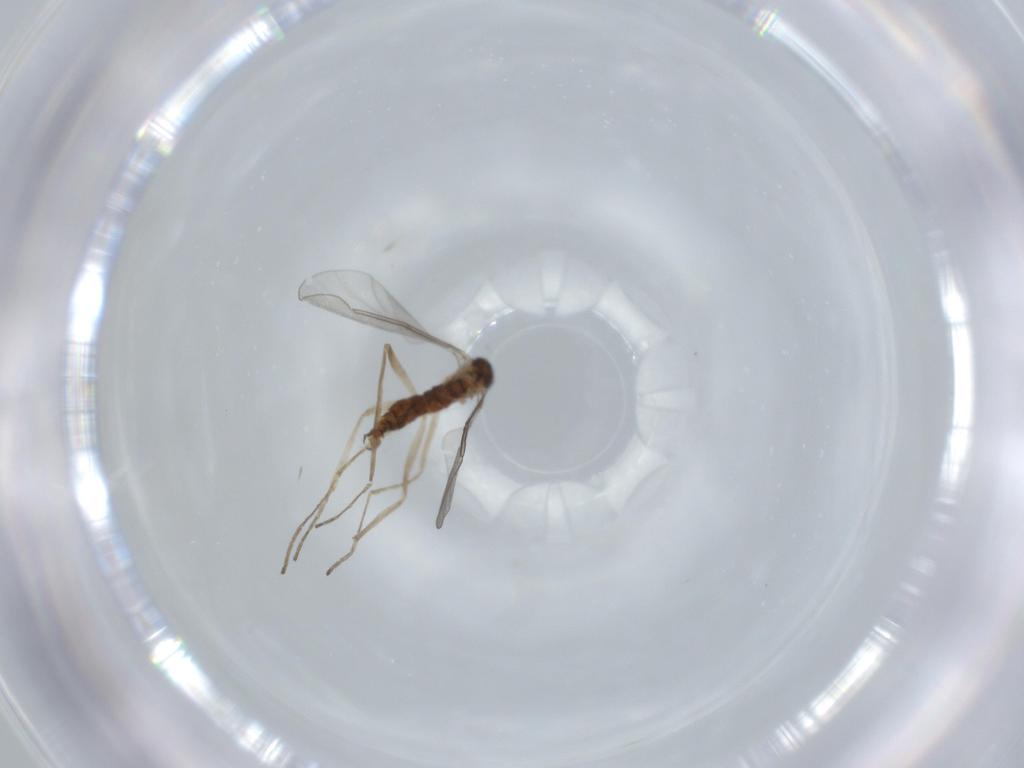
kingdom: Animalia
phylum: Arthropoda
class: Insecta
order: Diptera
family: Cecidomyiidae
